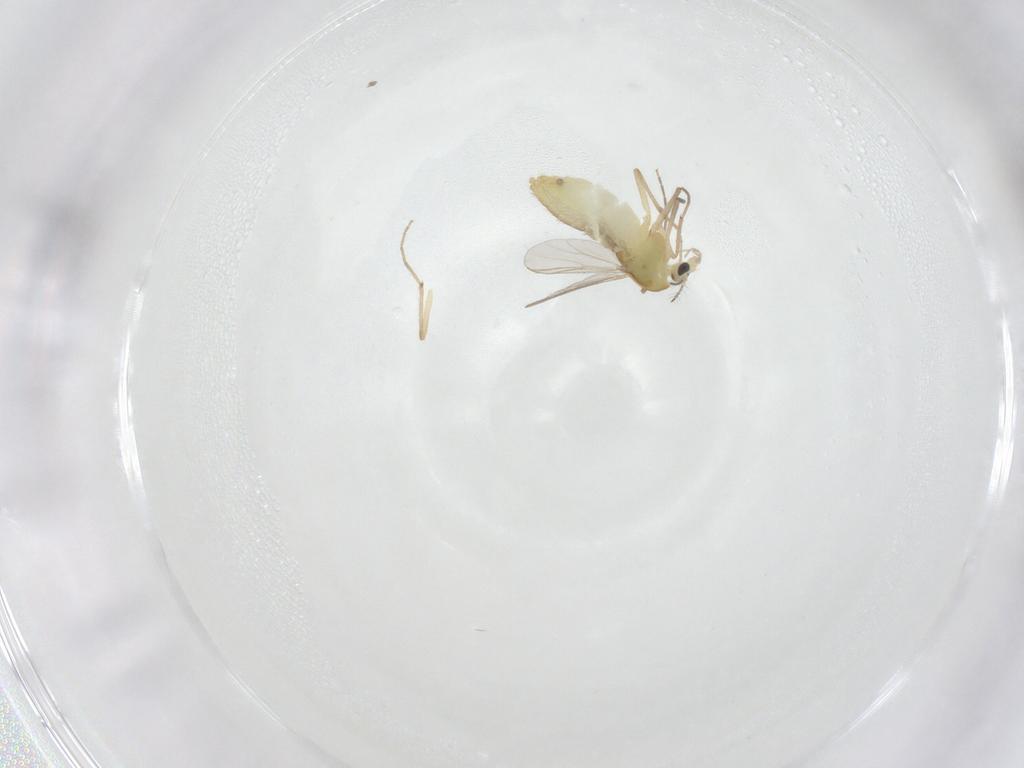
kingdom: Animalia
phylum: Arthropoda
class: Insecta
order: Diptera
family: Chironomidae
